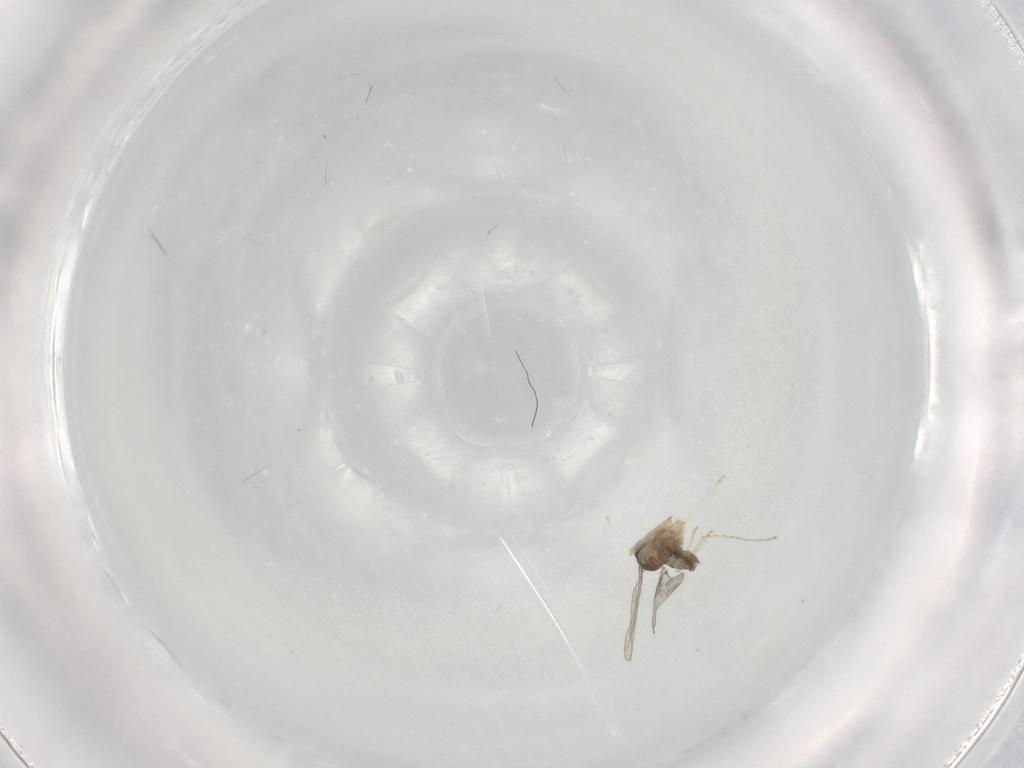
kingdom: Animalia
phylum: Arthropoda
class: Insecta
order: Diptera
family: Cecidomyiidae
